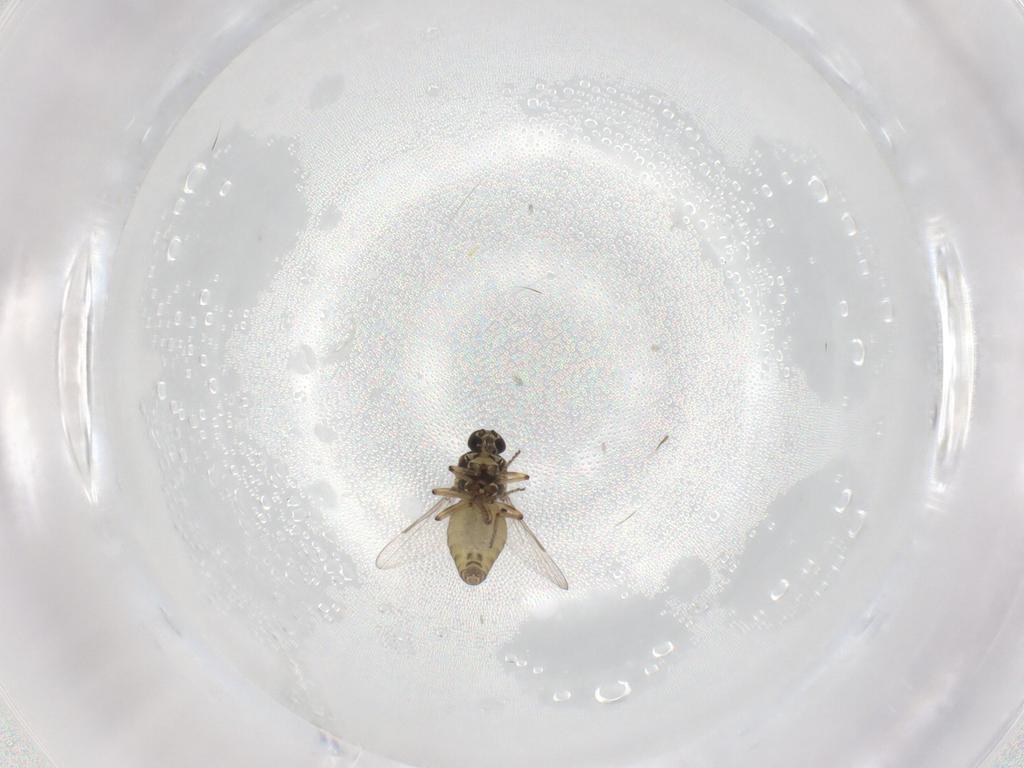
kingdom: Animalia
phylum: Arthropoda
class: Insecta
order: Diptera
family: Ceratopogonidae
